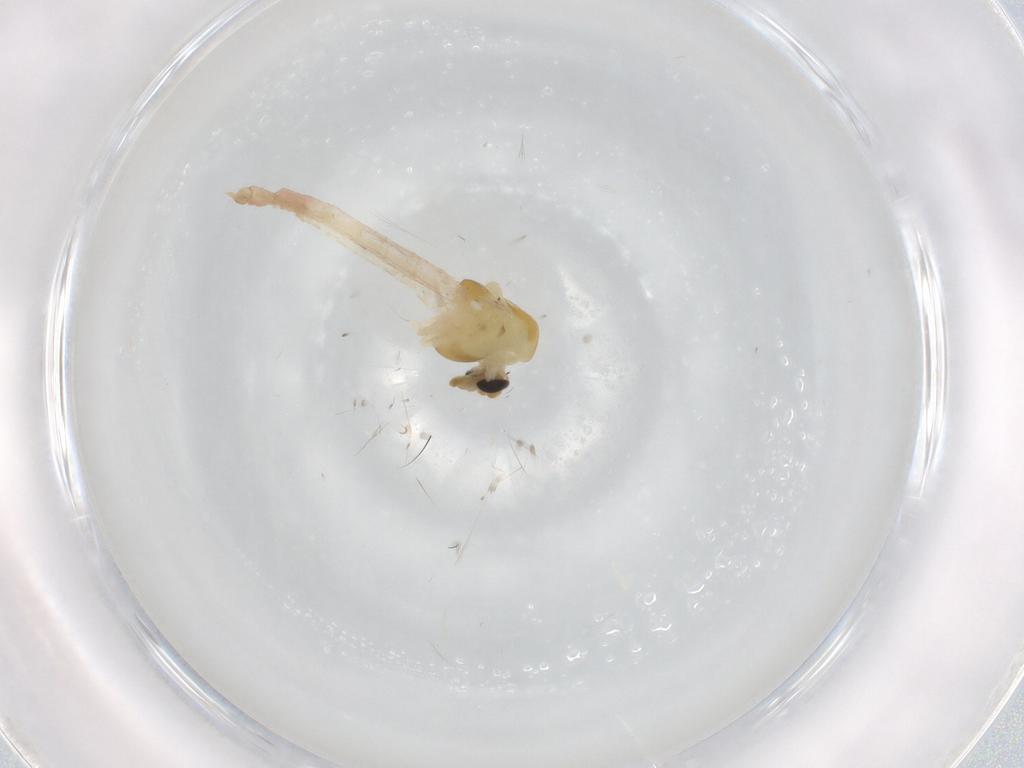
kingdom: Animalia
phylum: Arthropoda
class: Insecta
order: Diptera
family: Chironomidae
